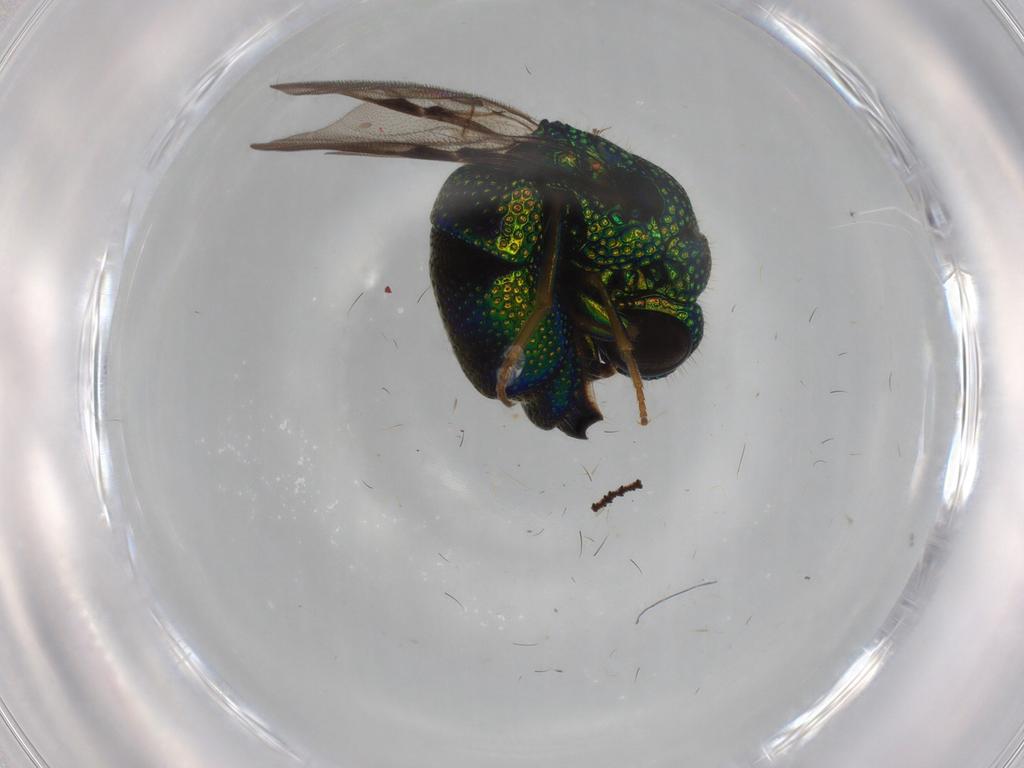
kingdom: Animalia
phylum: Arthropoda
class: Insecta
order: Hymenoptera
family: Chrysididae
